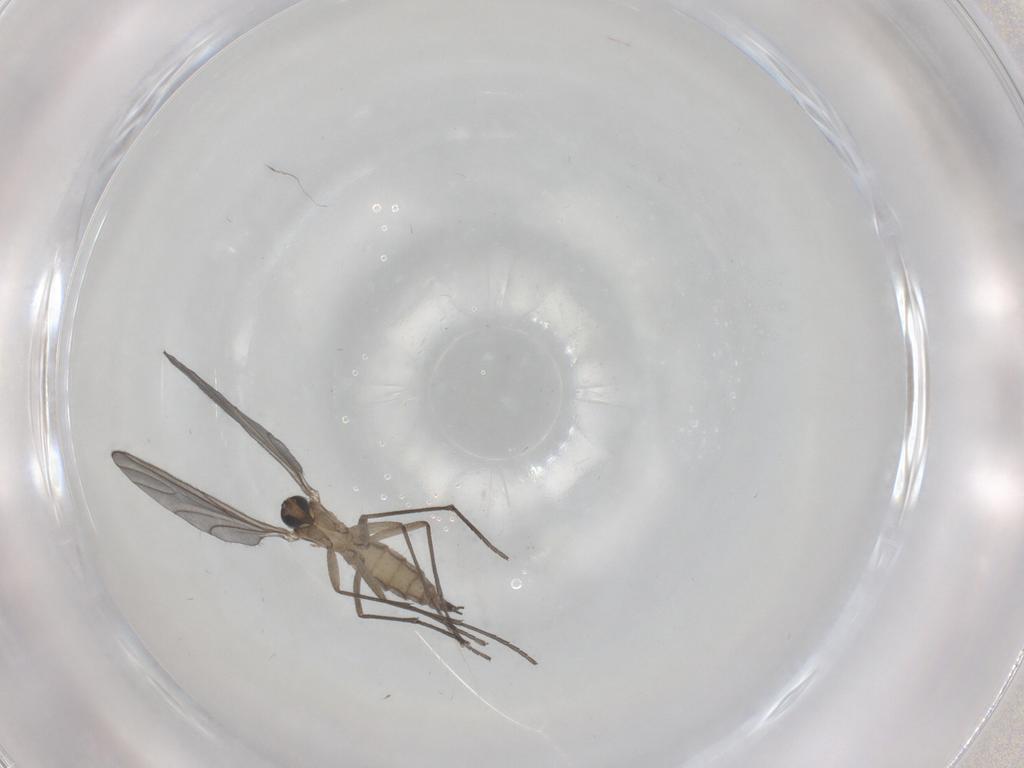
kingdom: Animalia
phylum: Arthropoda
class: Insecta
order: Diptera
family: Sciaridae
